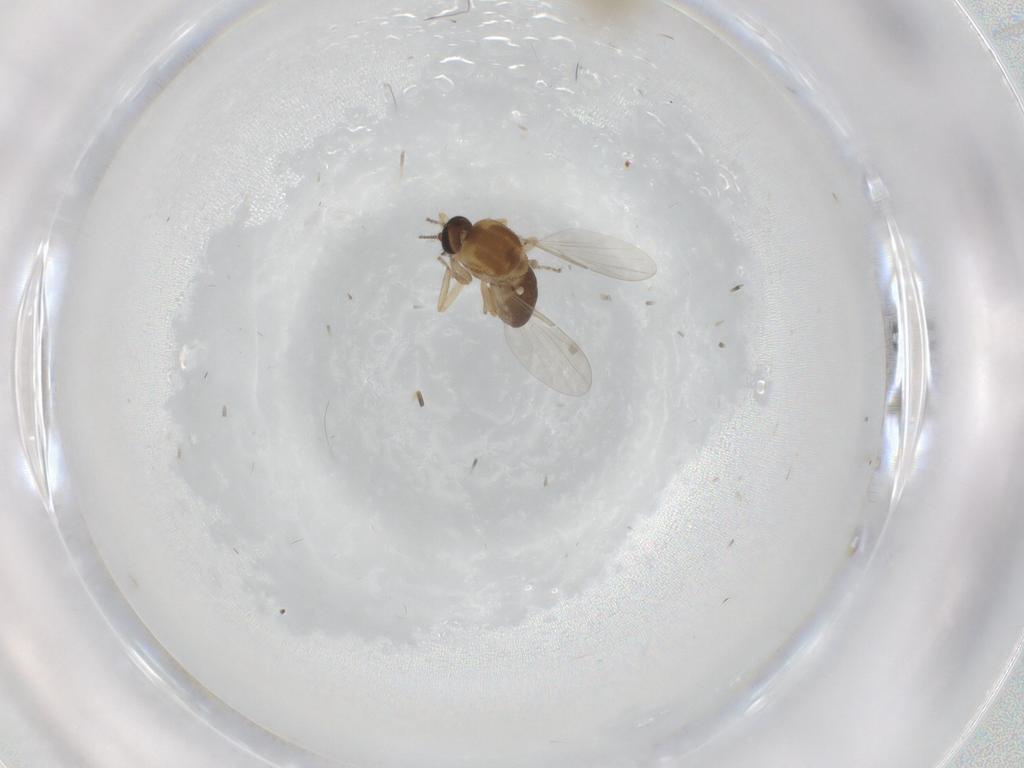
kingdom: Animalia
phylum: Arthropoda
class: Insecta
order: Diptera
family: Ceratopogonidae
